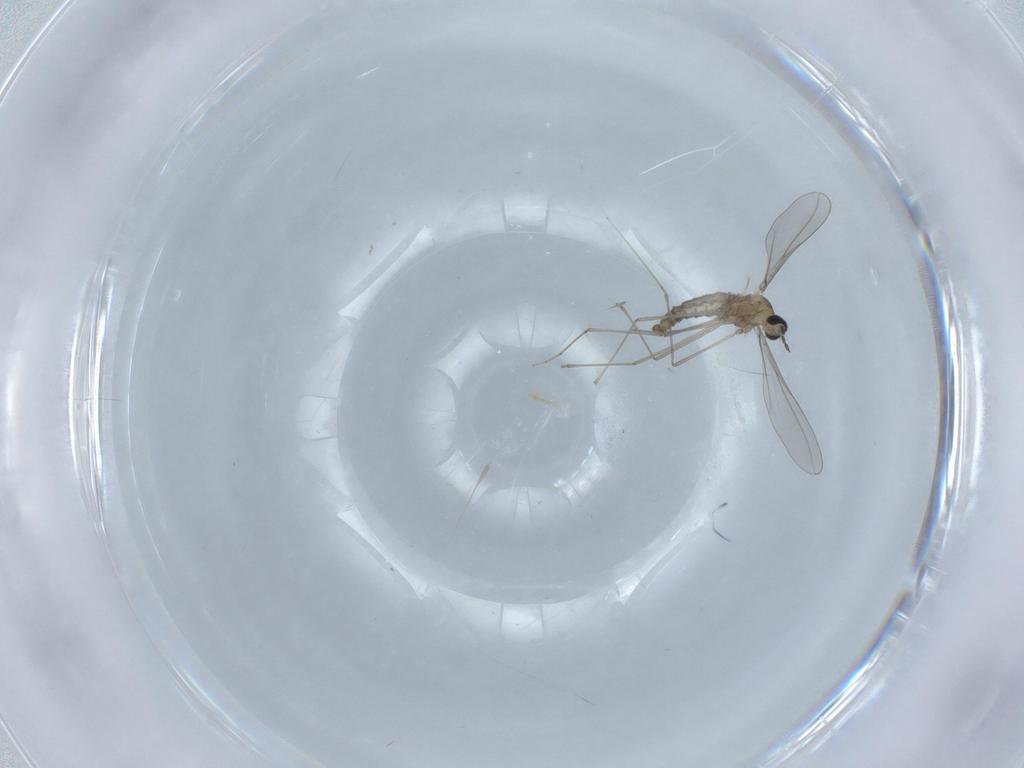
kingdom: Animalia
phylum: Arthropoda
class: Insecta
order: Diptera
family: Cecidomyiidae
